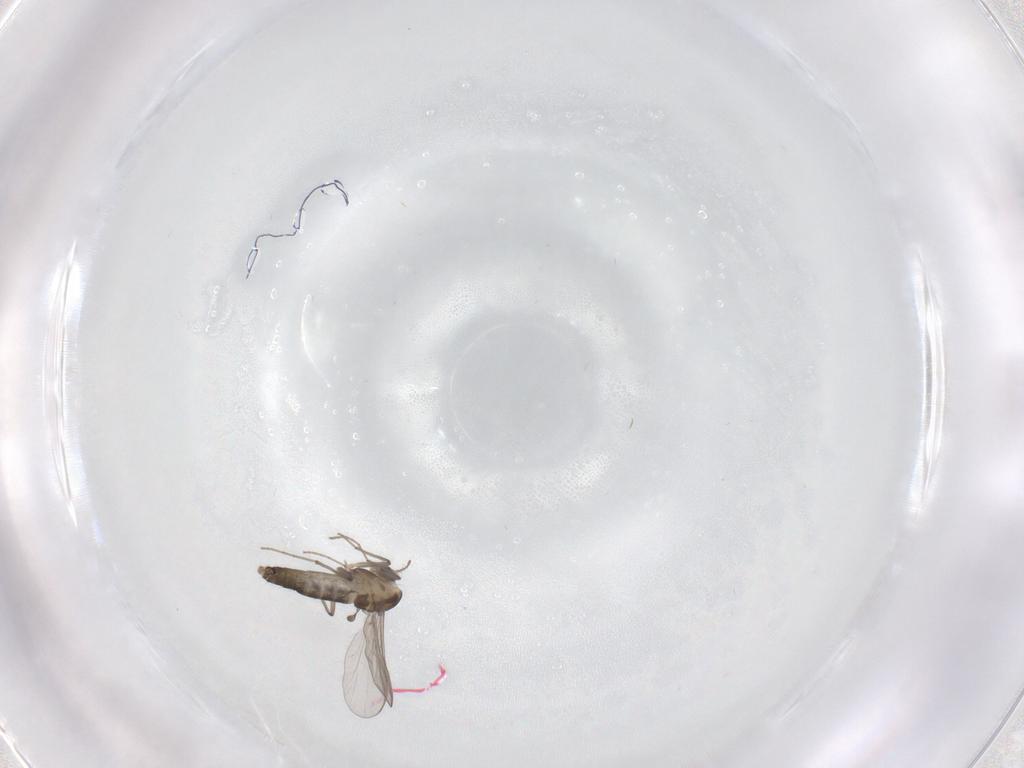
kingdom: Animalia
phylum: Arthropoda
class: Insecta
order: Diptera
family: Chironomidae
